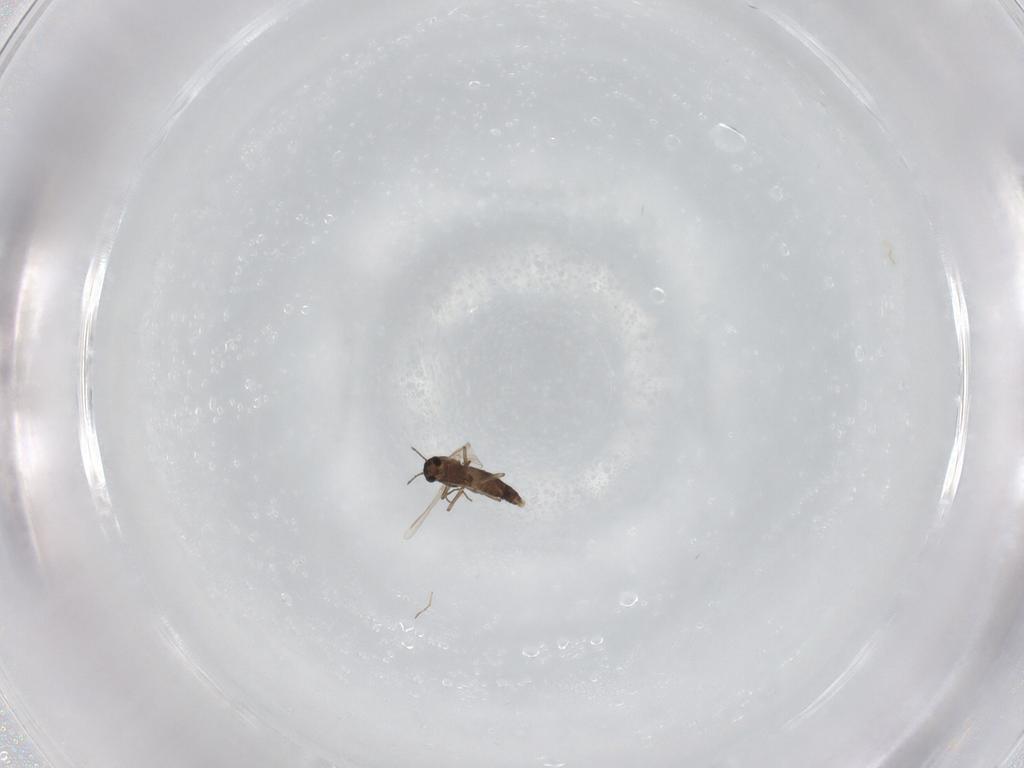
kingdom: Animalia
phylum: Arthropoda
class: Insecta
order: Diptera
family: Chironomidae
